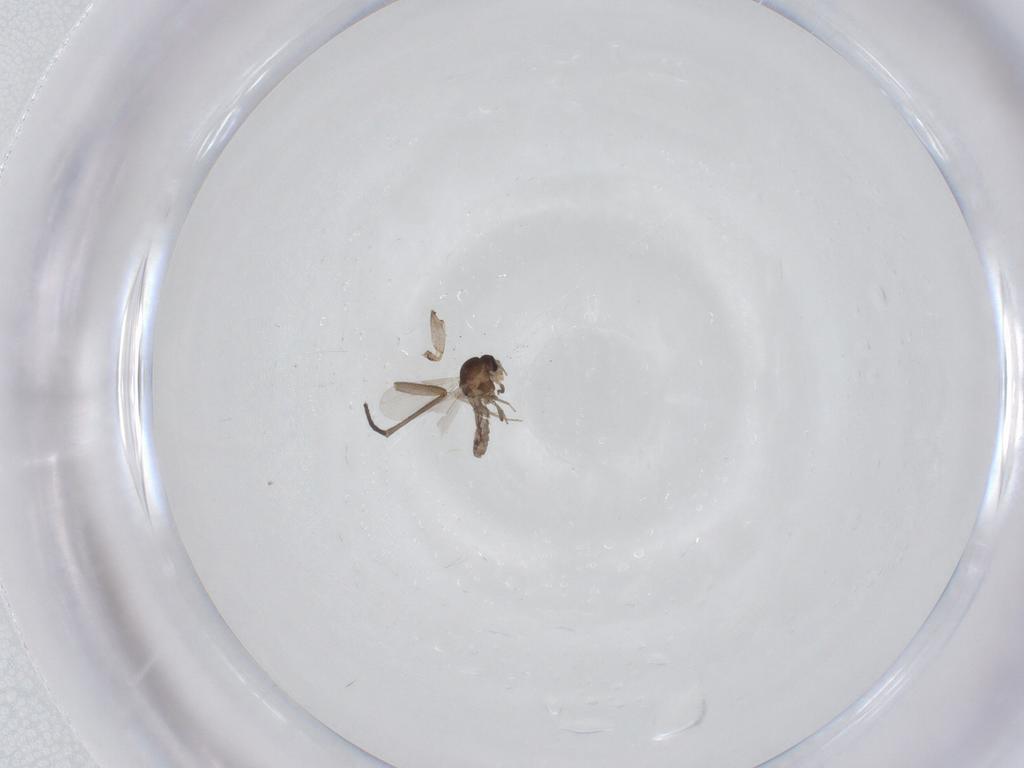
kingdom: Animalia
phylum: Arthropoda
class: Insecta
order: Diptera
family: Sciaridae
